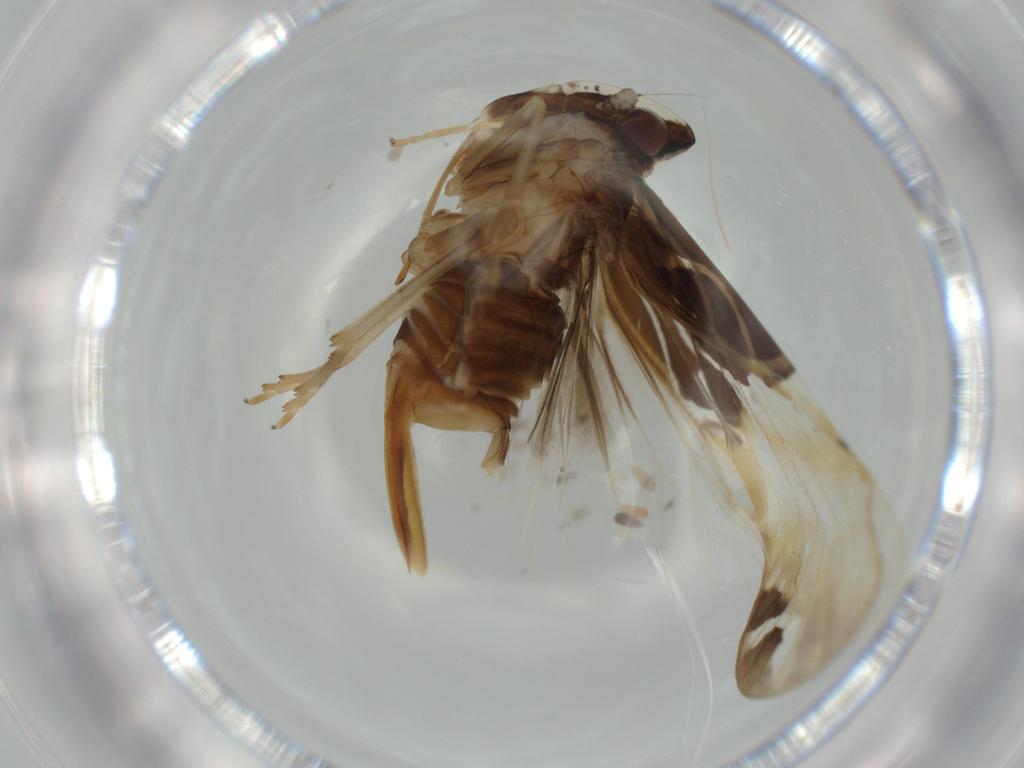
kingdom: Animalia
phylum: Arthropoda
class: Insecta
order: Hemiptera
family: Cixiidae
